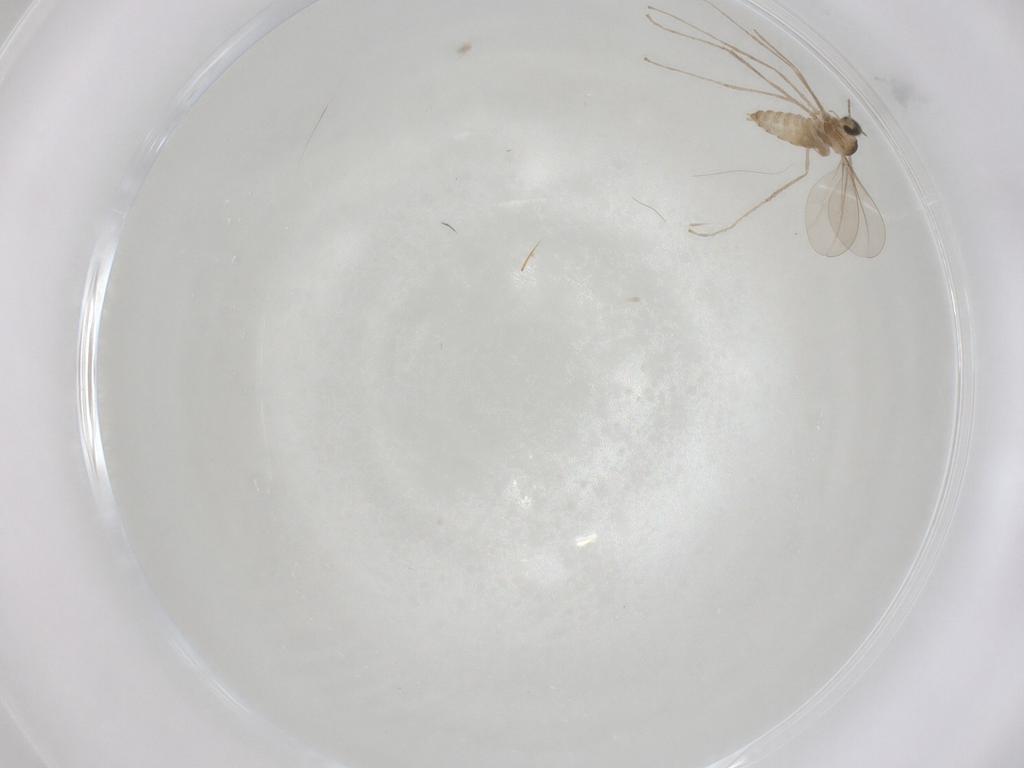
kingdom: Animalia
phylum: Arthropoda
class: Insecta
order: Diptera
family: Cecidomyiidae
